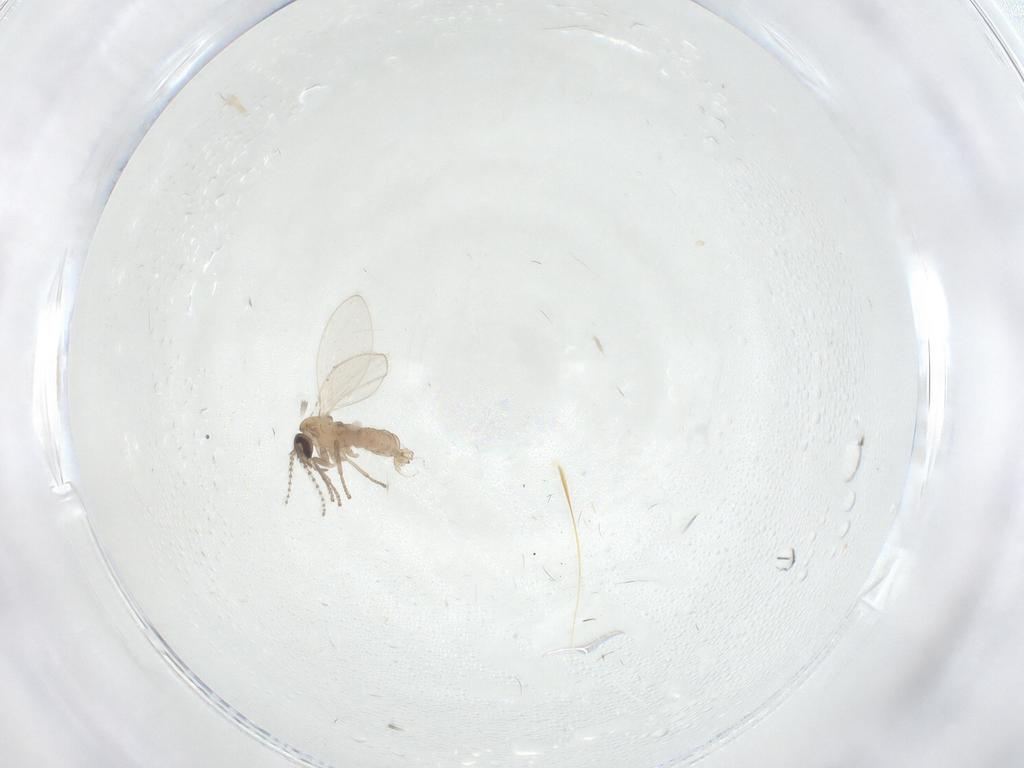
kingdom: Animalia
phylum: Arthropoda
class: Insecta
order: Diptera
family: Psychodidae
